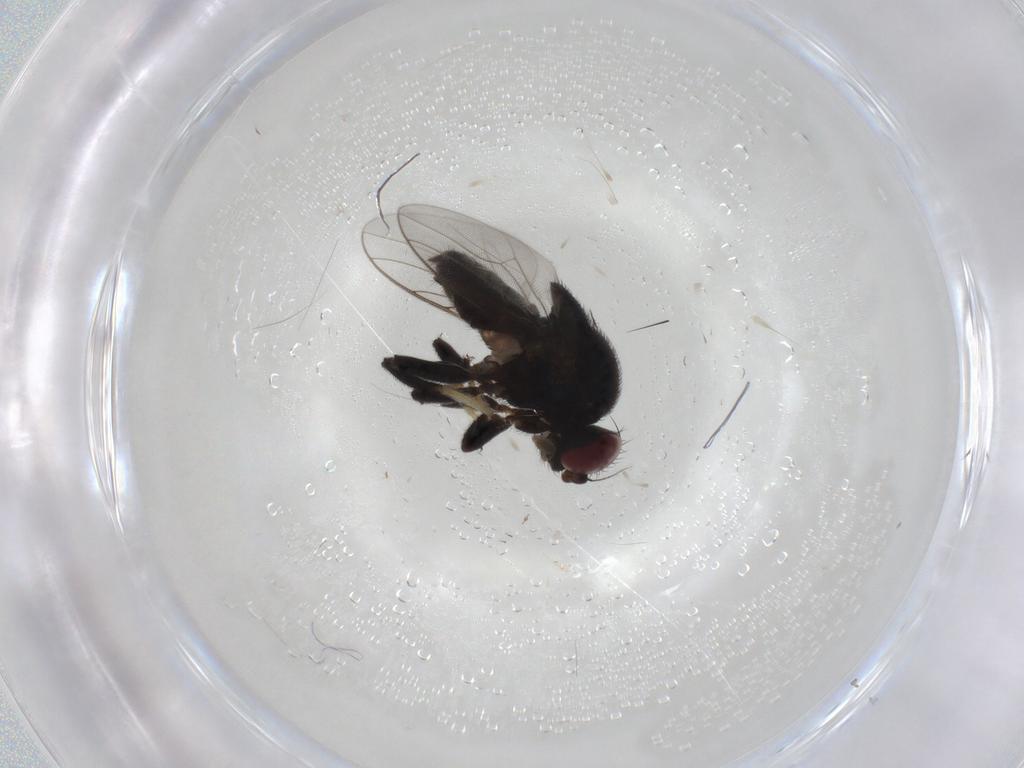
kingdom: Animalia
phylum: Arthropoda
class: Insecta
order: Diptera
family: Chloropidae
